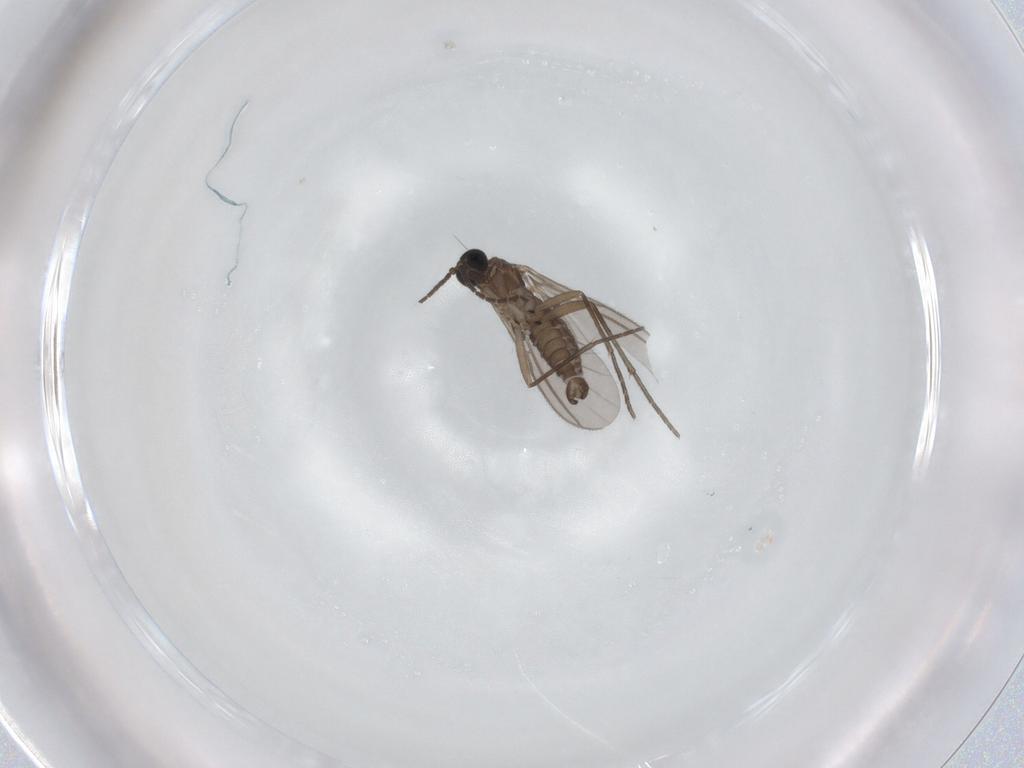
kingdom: Animalia
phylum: Arthropoda
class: Insecta
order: Diptera
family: Sciaridae
